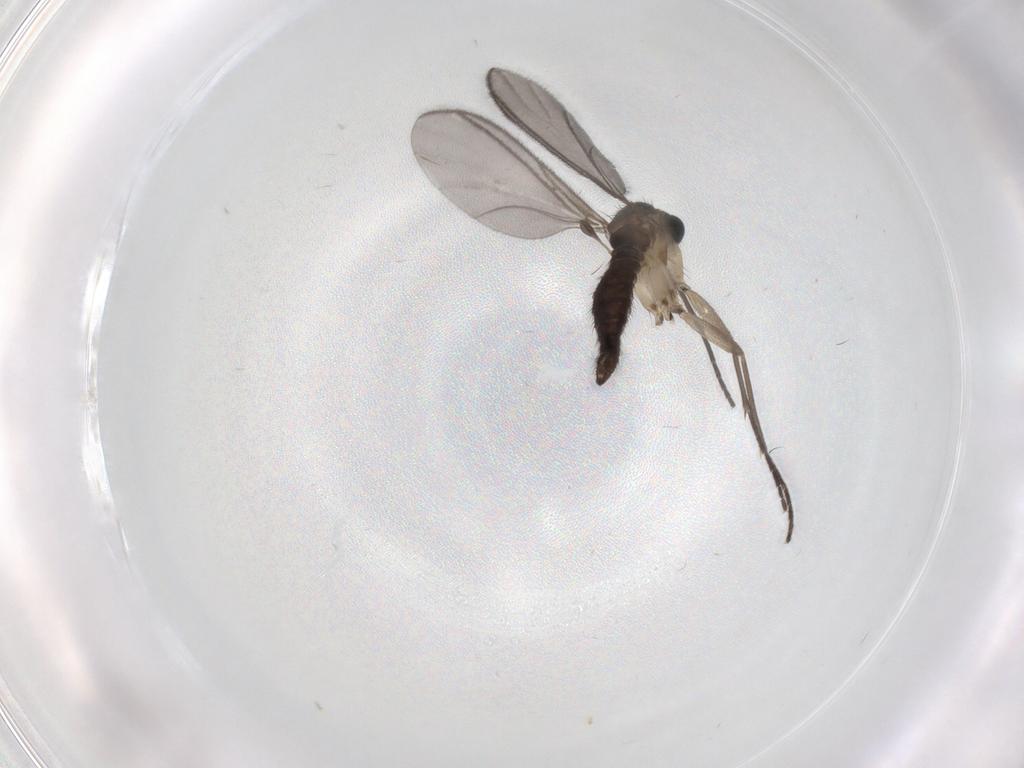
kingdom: Animalia
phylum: Arthropoda
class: Insecta
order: Diptera
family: Sciaridae
